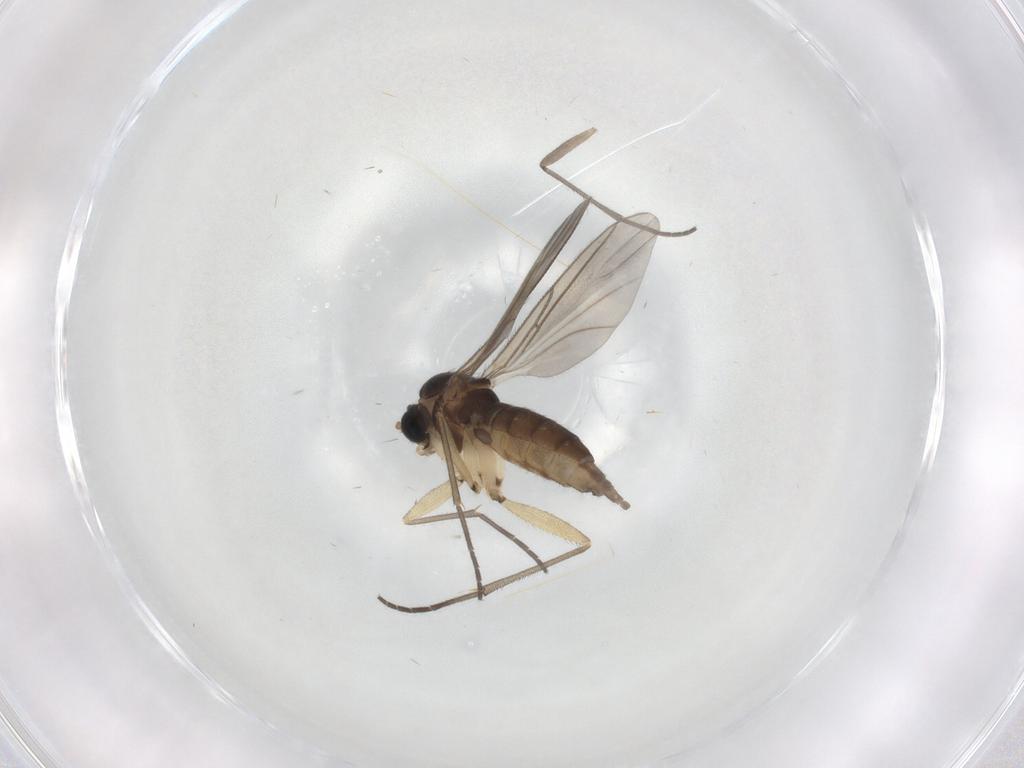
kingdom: Animalia
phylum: Arthropoda
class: Insecta
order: Diptera
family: Sciaridae
